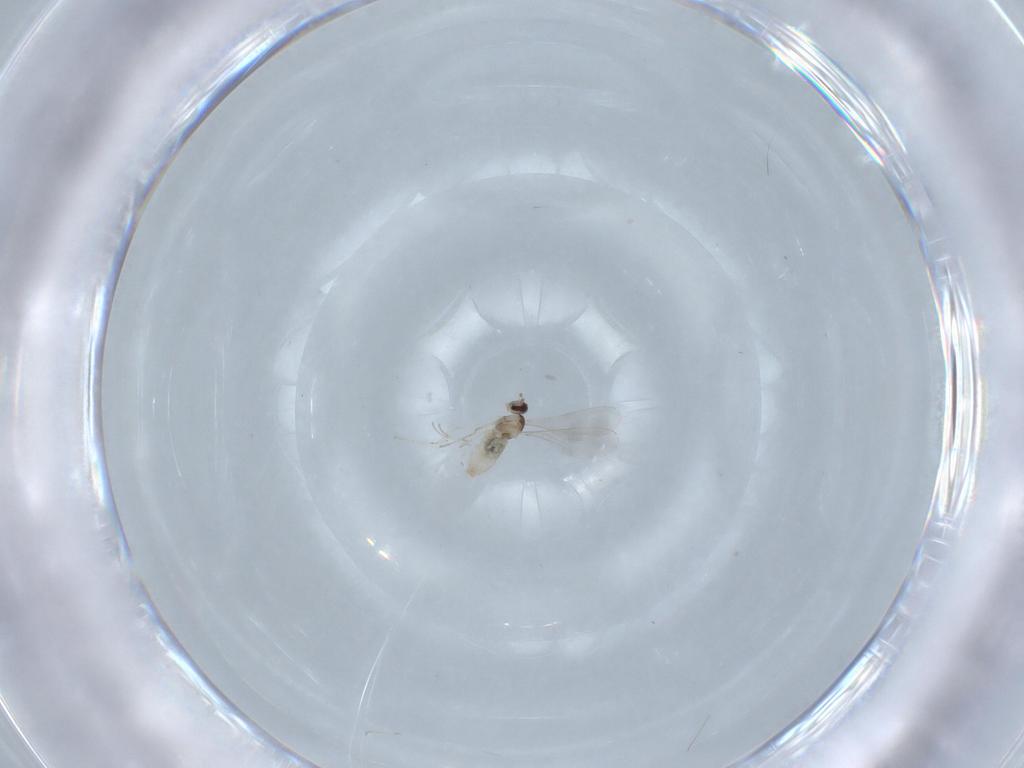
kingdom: Animalia
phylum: Arthropoda
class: Insecta
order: Diptera
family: Cecidomyiidae
